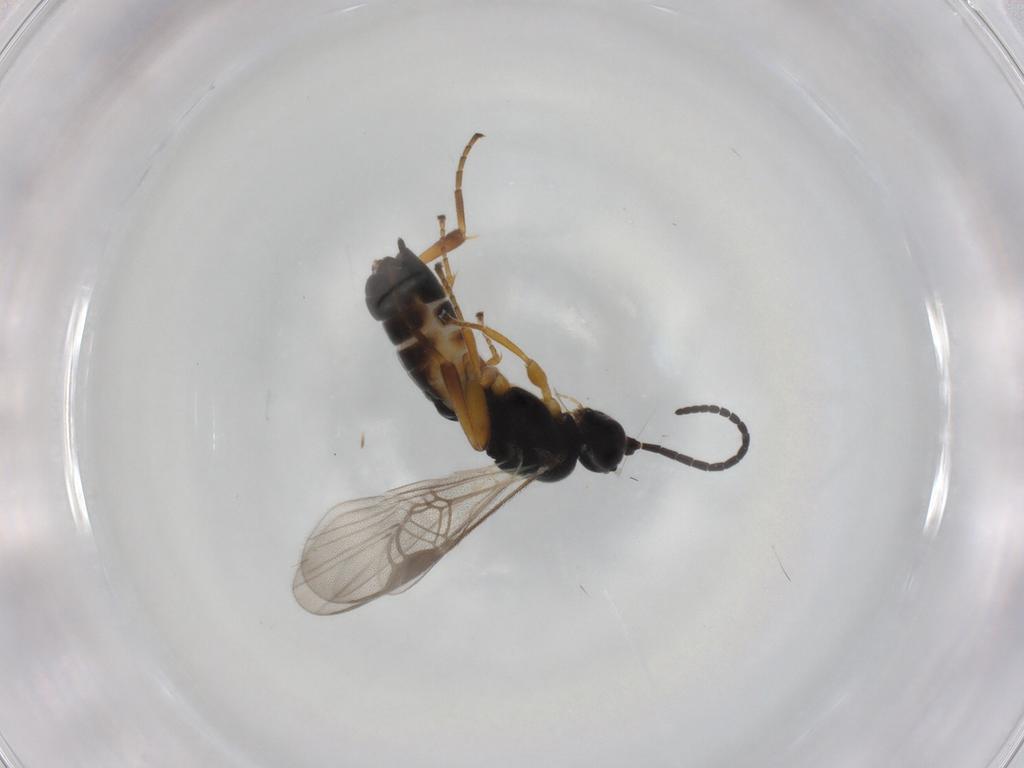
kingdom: Animalia
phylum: Arthropoda
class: Insecta
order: Hymenoptera
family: Braconidae
